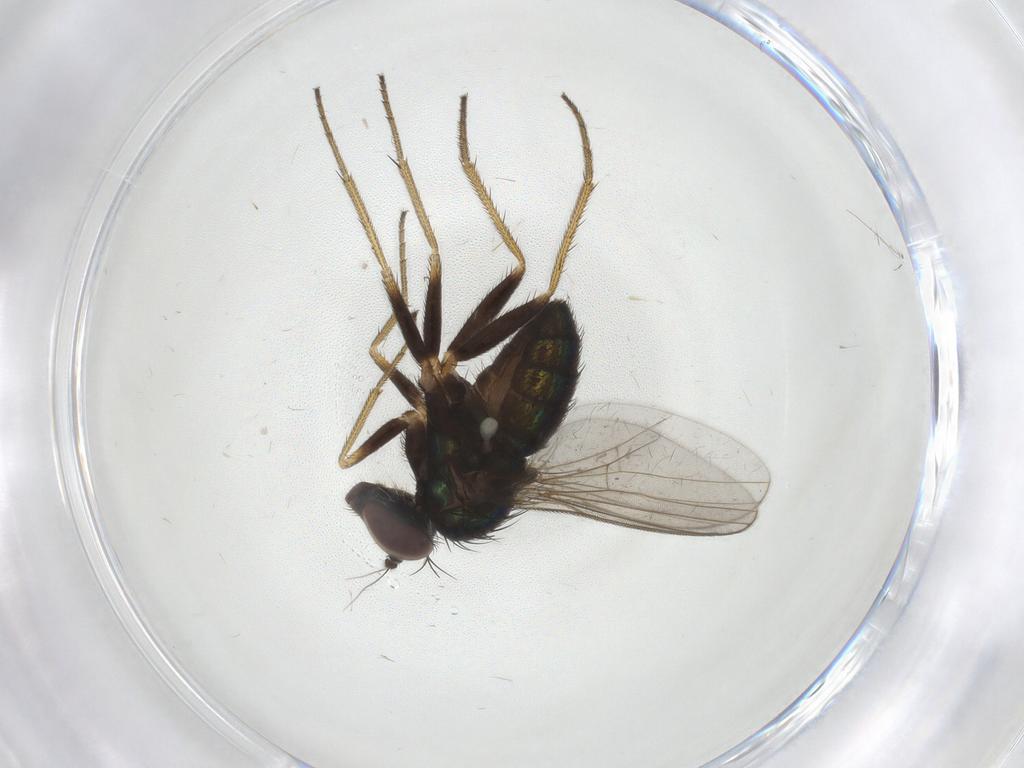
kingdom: Animalia
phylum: Arthropoda
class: Insecta
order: Diptera
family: Dolichopodidae
